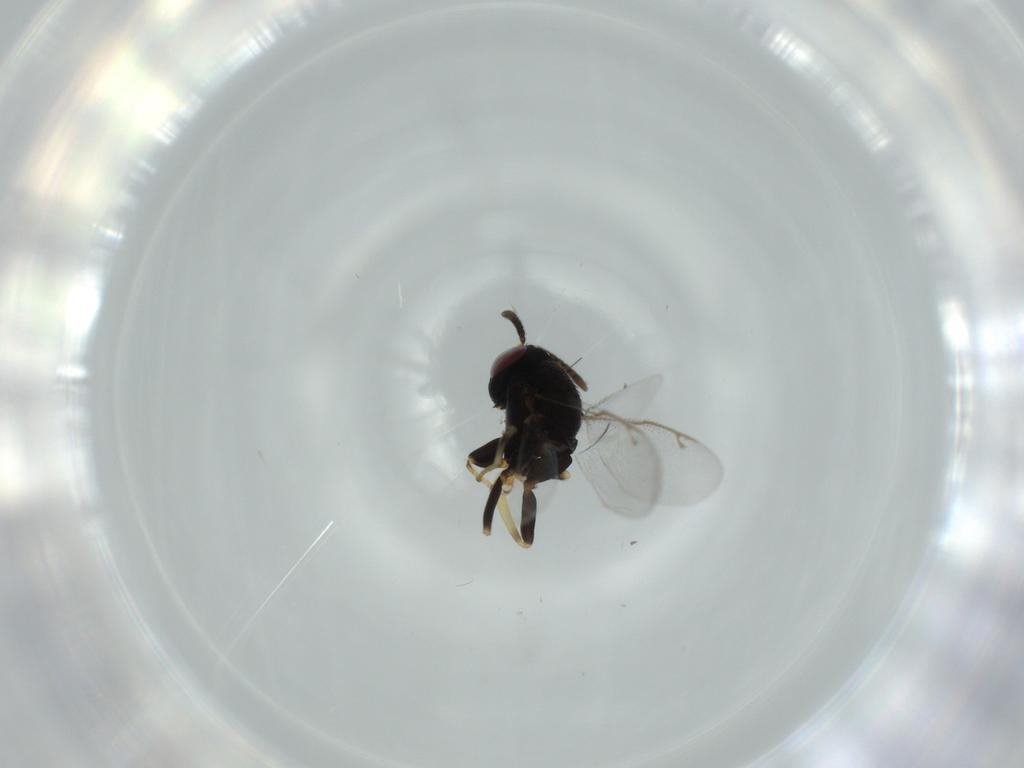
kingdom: Animalia
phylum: Arthropoda
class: Insecta
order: Hymenoptera
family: Tanaostigmatidae
